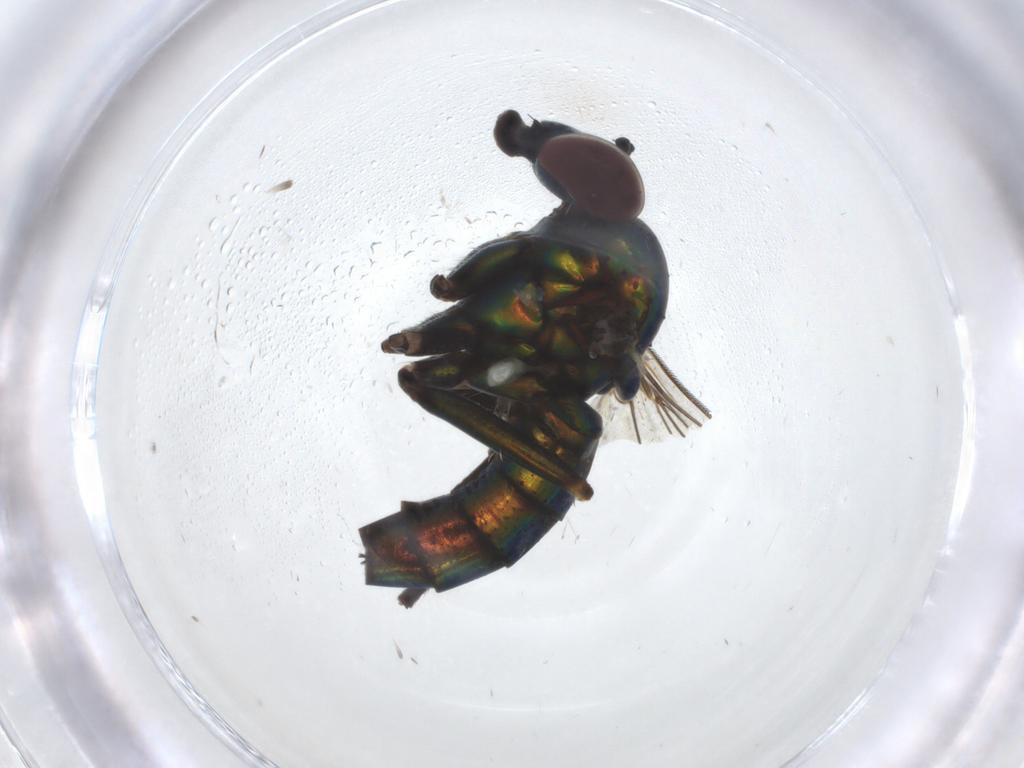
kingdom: Animalia
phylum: Arthropoda
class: Insecta
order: Diptera
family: Dolichopodidae
